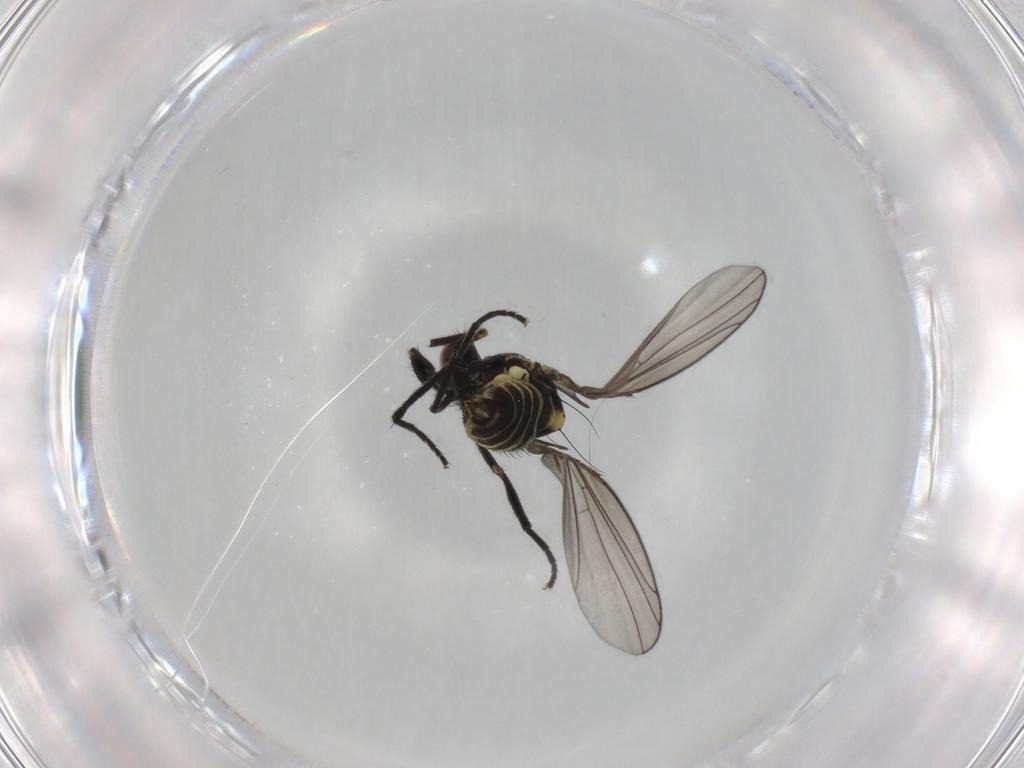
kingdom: Animalia
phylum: Arthropoda
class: Insecta
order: Diptera
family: Agromyzidae
